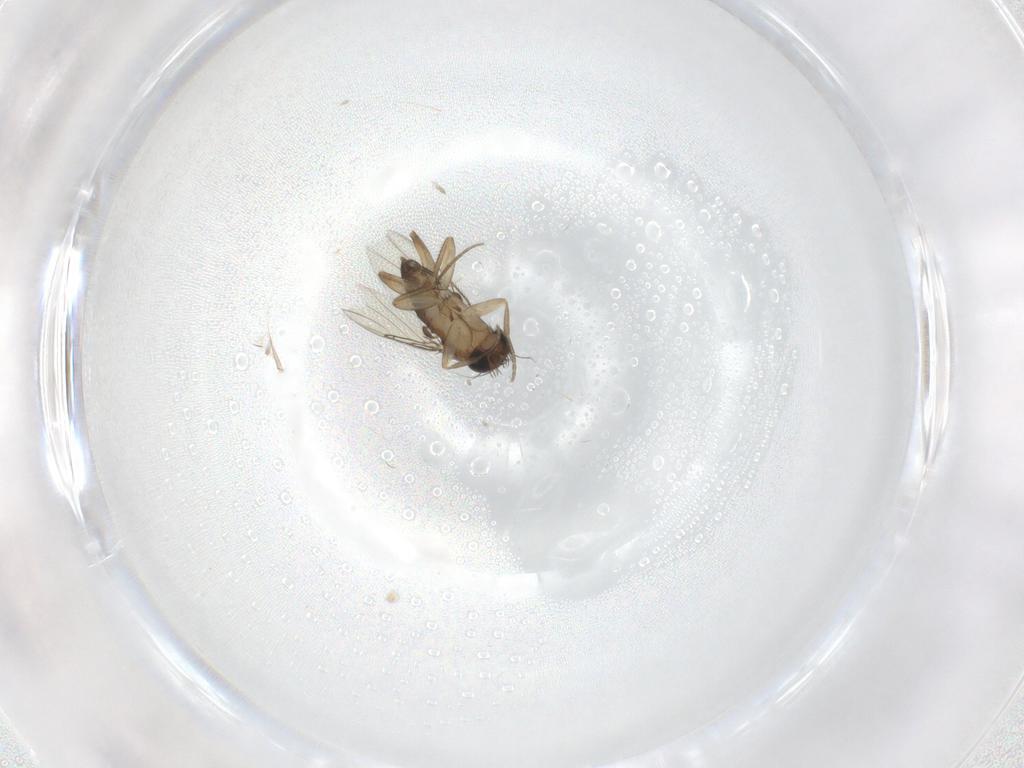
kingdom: Animalia
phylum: Arthropoda
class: Insecta
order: Diptera
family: Phoridae
